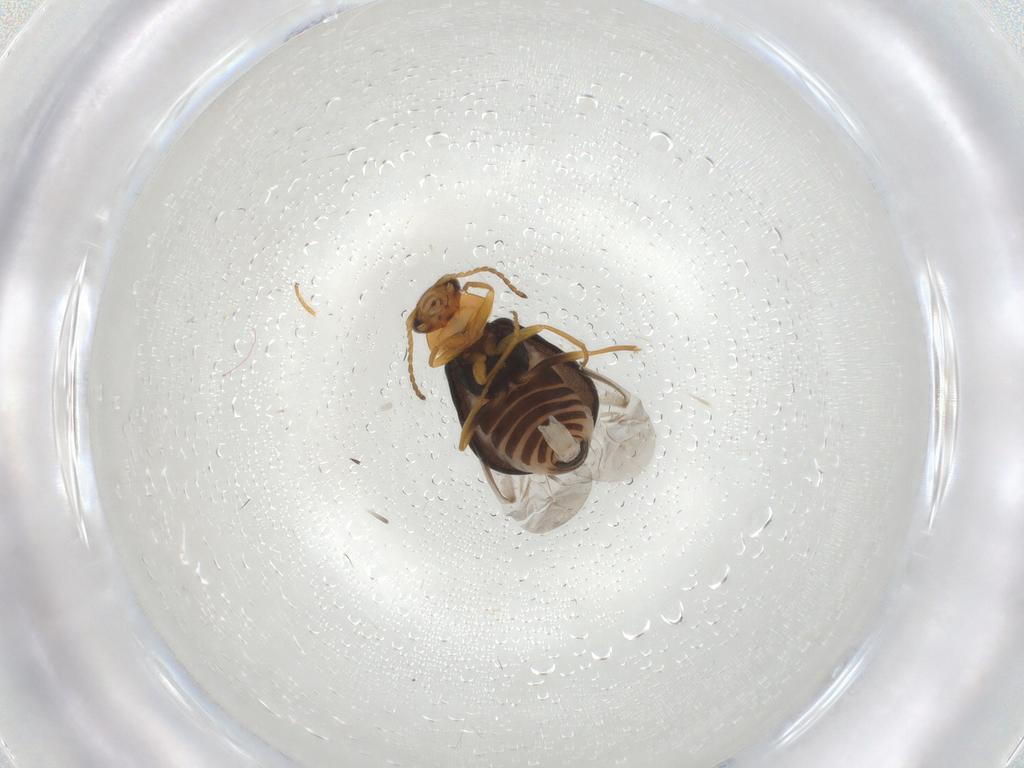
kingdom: Animalia
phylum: Arthropoda
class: Insecta
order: Coleoptera
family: Melyridae
